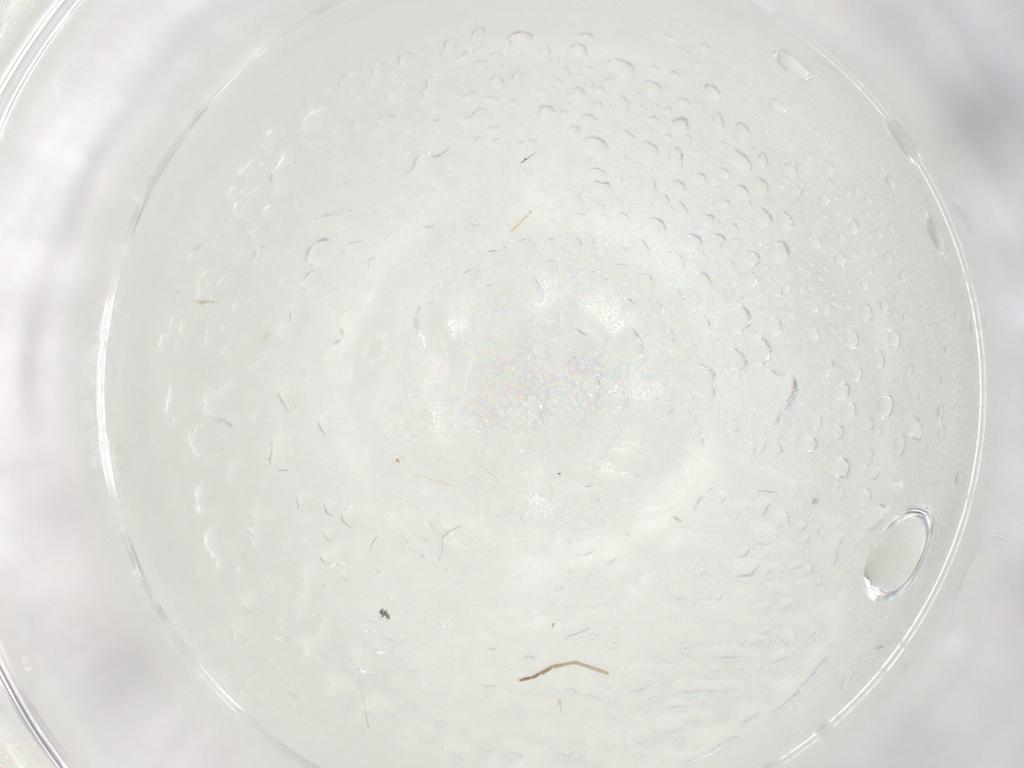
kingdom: Animalia
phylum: Arthropoda
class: Insecta
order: Diptera
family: Chironomidae
